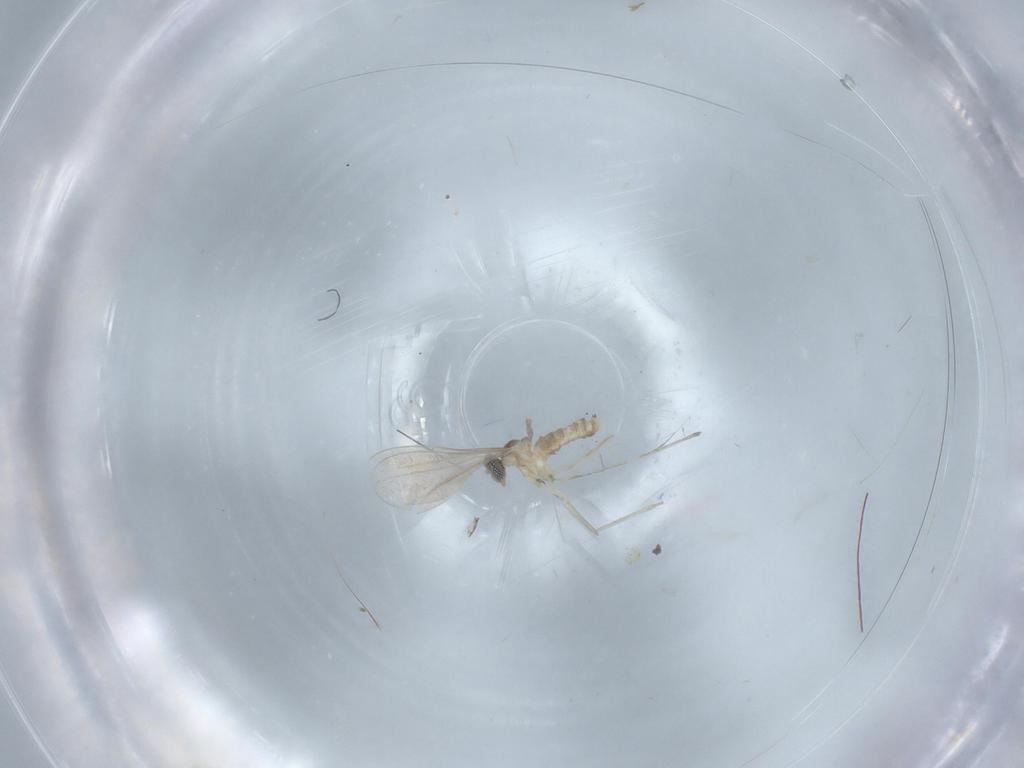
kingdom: Animalia
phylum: Arthropoda
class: Insecta
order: Diptera
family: Cecidomyiidae
